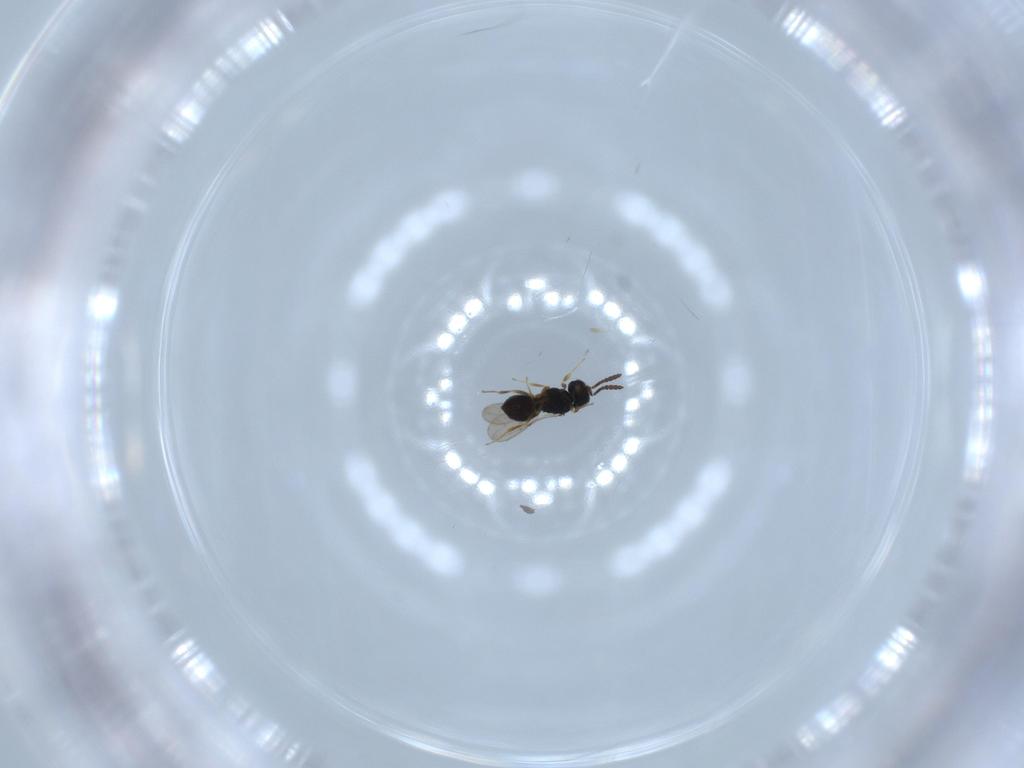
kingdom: Animalia
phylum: Arthropoda
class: Insecta
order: Hymenoptera
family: Scelionidae
